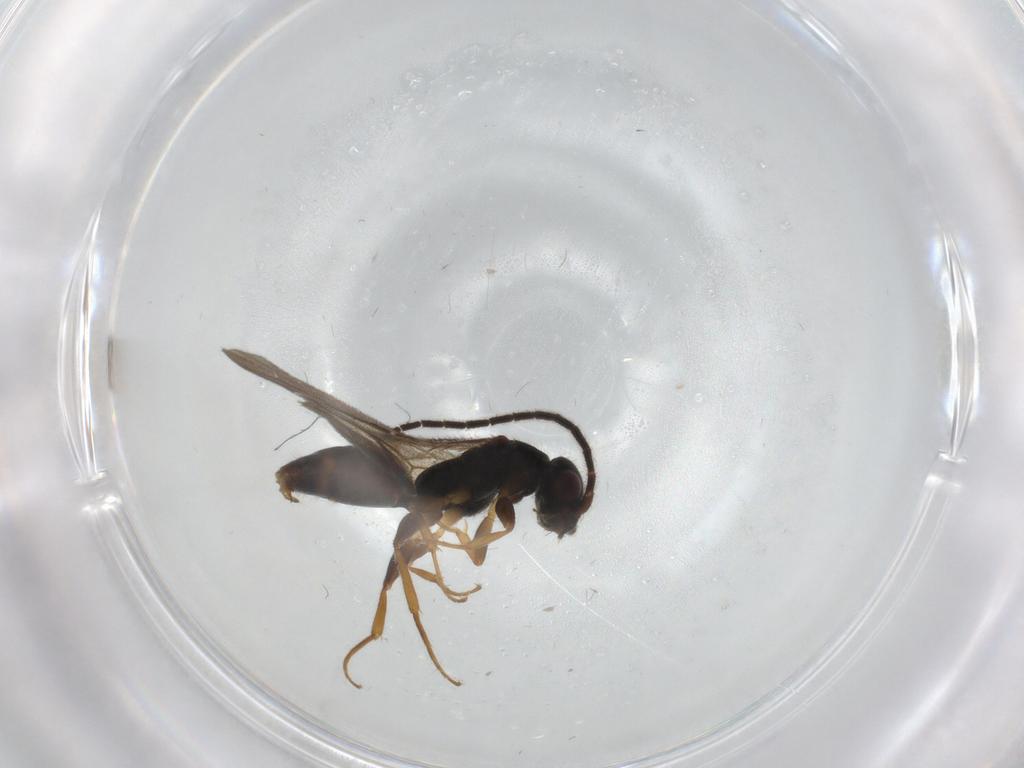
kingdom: Animalia
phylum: Arthropoda
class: Insecta
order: Hymenoptera
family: Bethylidae
